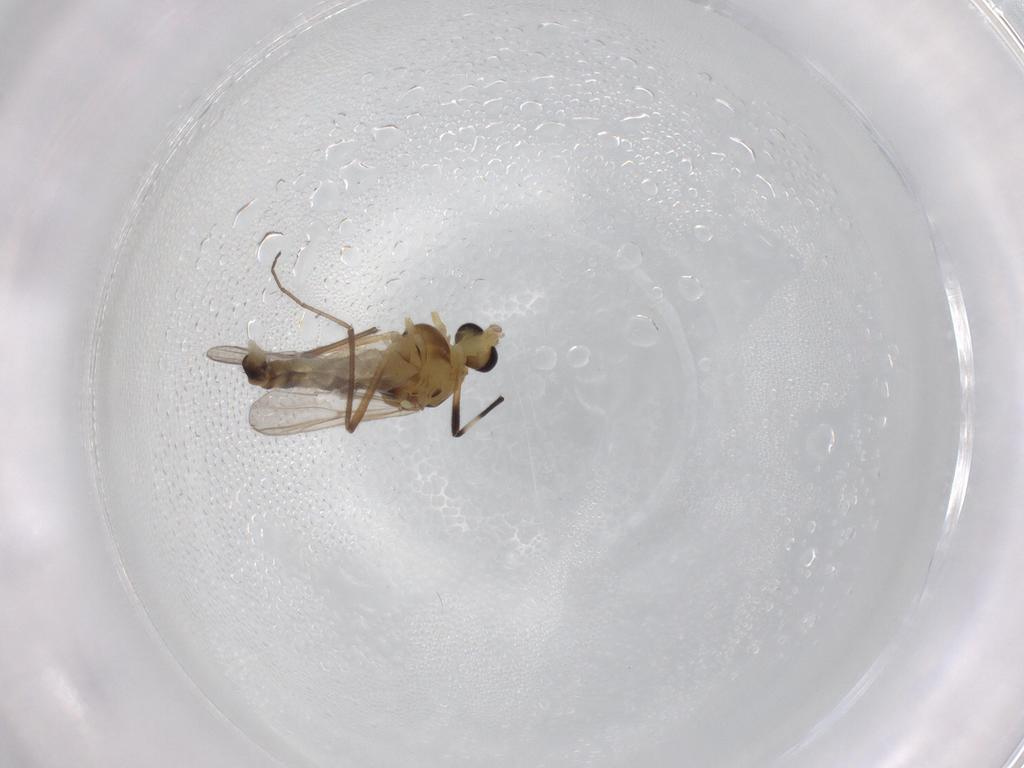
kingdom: Animalia
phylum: Arthropoda
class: Insecta
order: Diptera
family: Chironomidae
